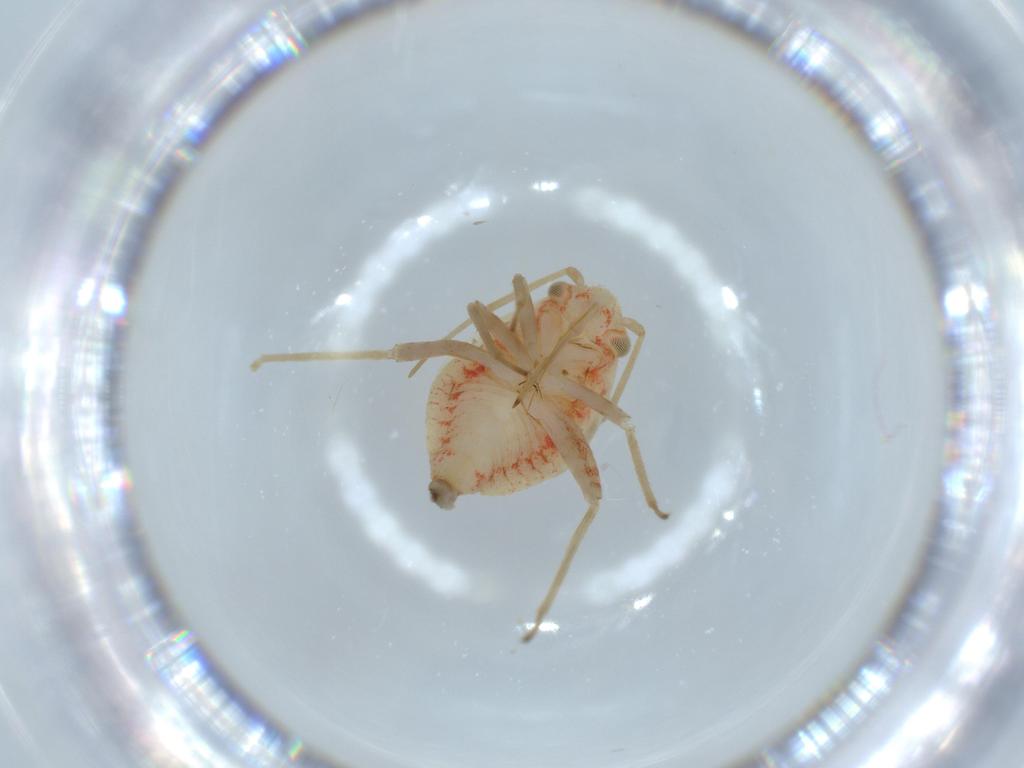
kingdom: Animalia
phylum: Arthropoda
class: Insecta
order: Hemiptera
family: Miridae
